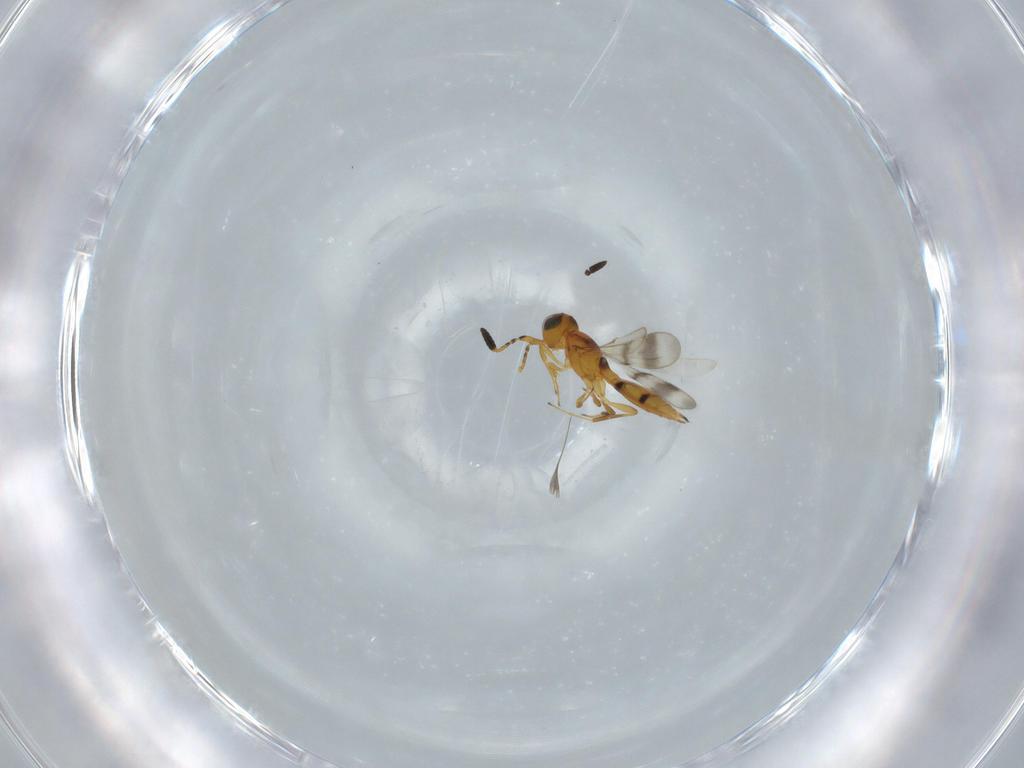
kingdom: Animalia
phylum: Arthropoda
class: Insecta
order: Hymenoptera
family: Scelionidae
